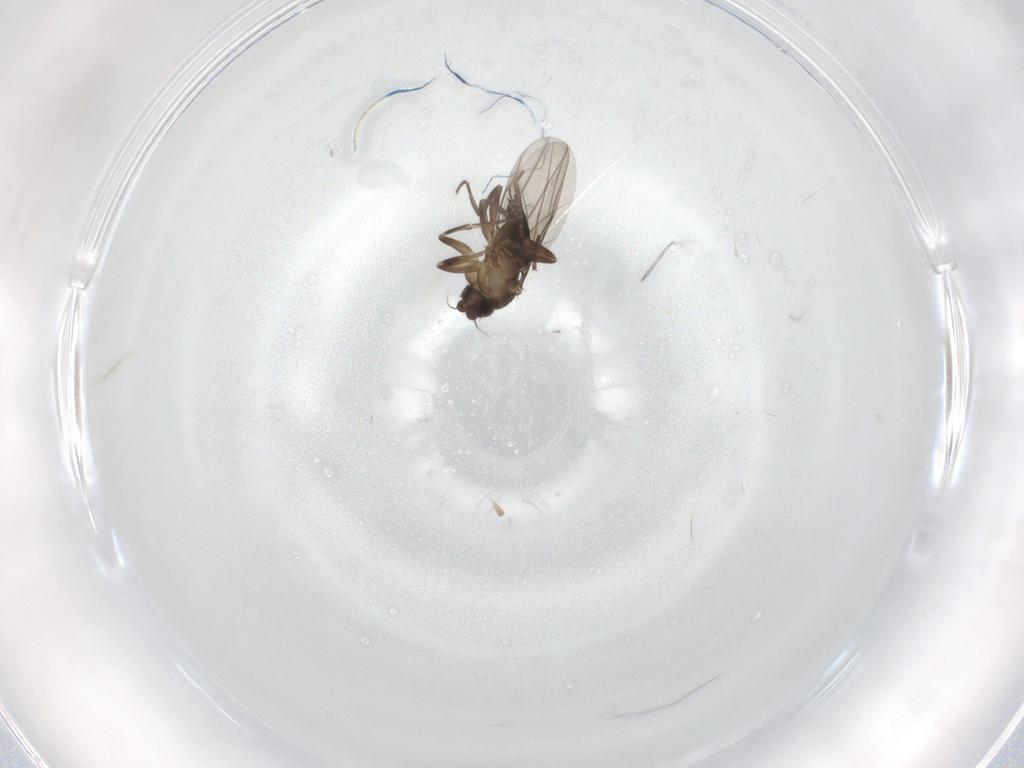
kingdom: Animalia
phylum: Arthropoda
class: Insecta
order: Diptera
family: Phoridae
